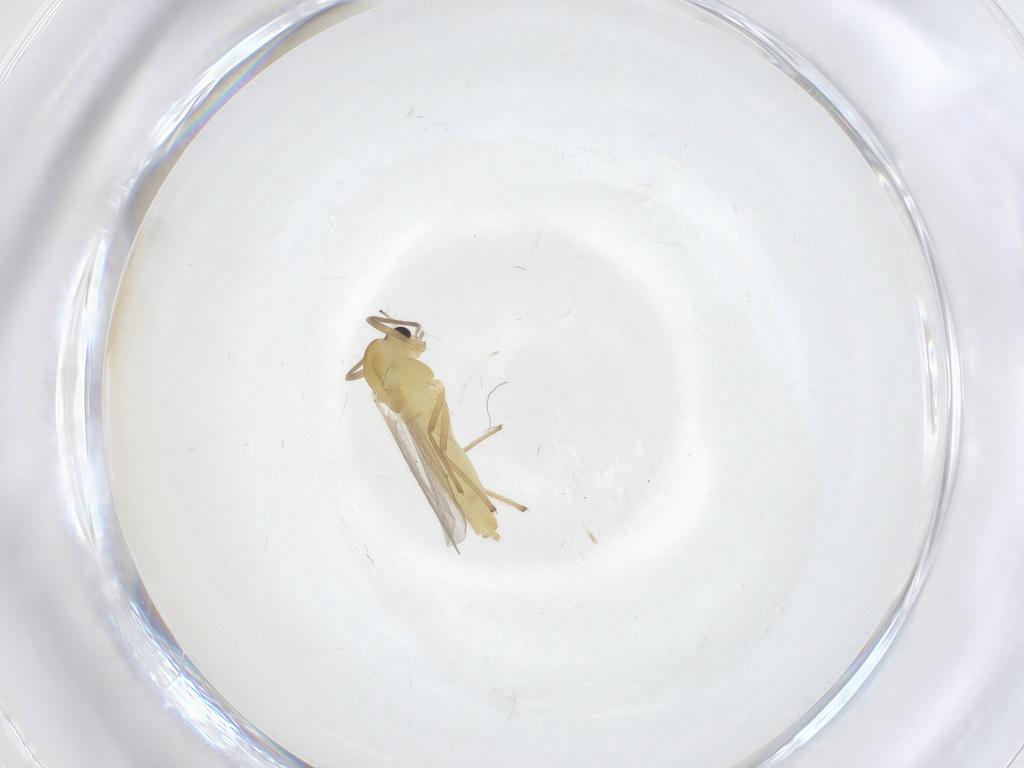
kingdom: Animalia
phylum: Arthropoda
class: Insecta
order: Diptera
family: Chironomidae
